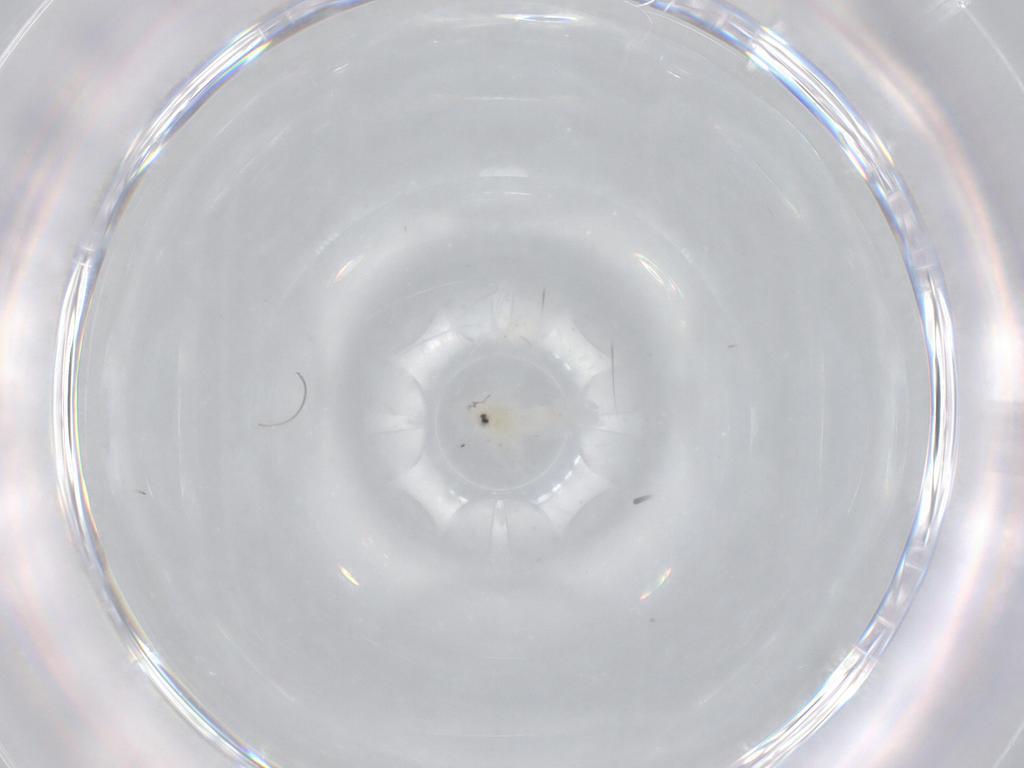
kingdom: Animalia
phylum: Arthropoda
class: Insecta
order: Hemiptera
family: Aleyrodidae
